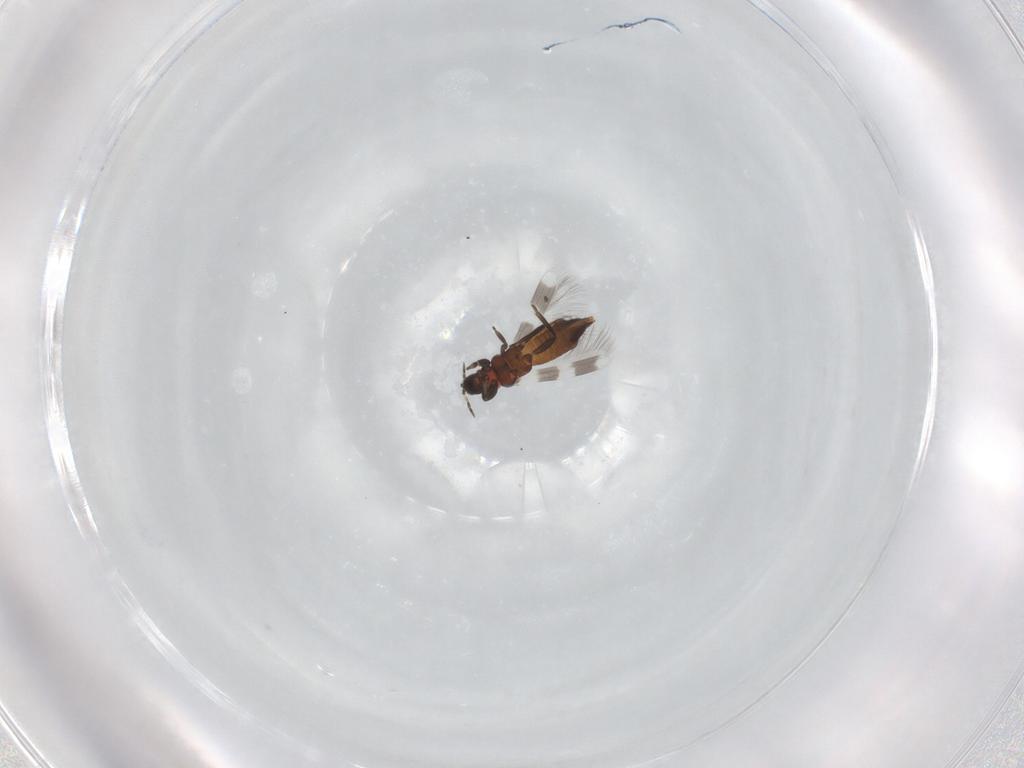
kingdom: Animalia
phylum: Arthropoda
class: Insecta
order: Thysanoptera
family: Aeolothripidae
